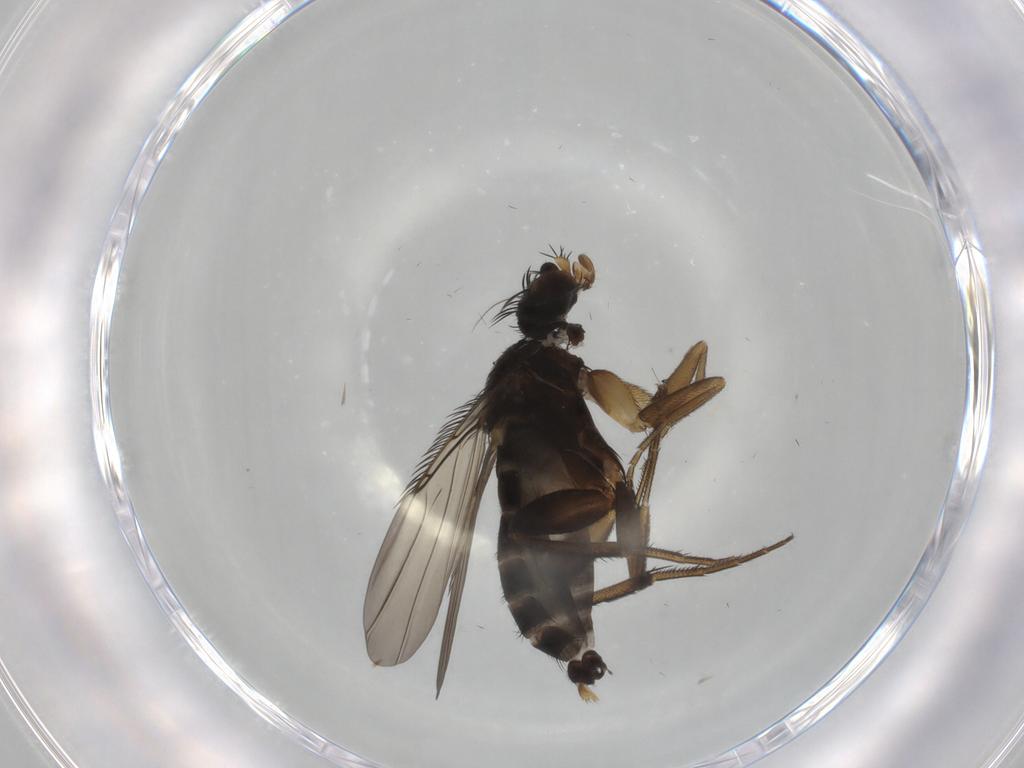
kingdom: Animalia
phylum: Arthropoda
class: Insecta
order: Diptera
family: Phoridae
